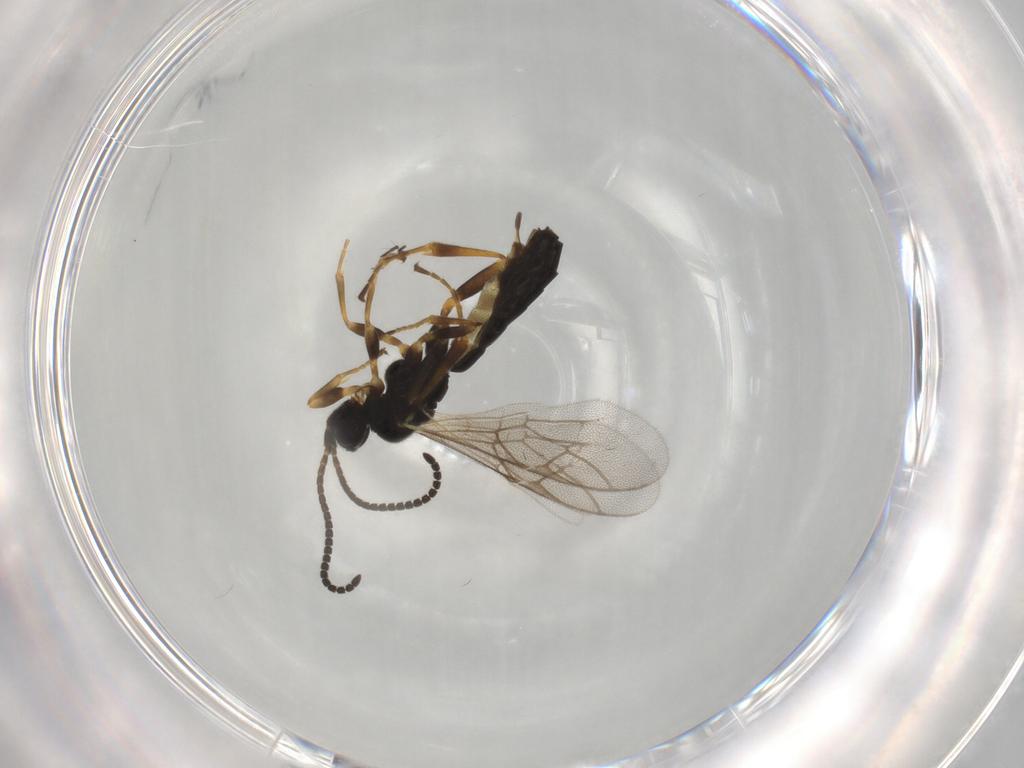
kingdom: Animalia
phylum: Arthropoda
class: Insecta
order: Hymenoptera
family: Ichneumonidae
